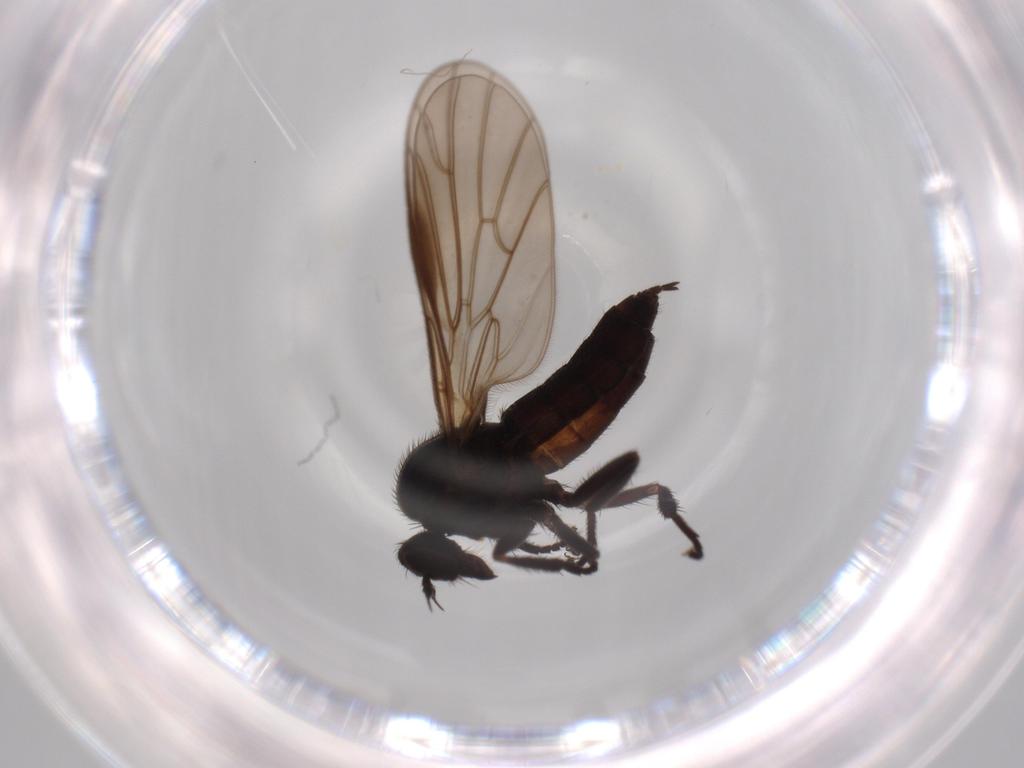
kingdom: Animalia
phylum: Arthropoda
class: Insecta
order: Diptera
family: Empididae
